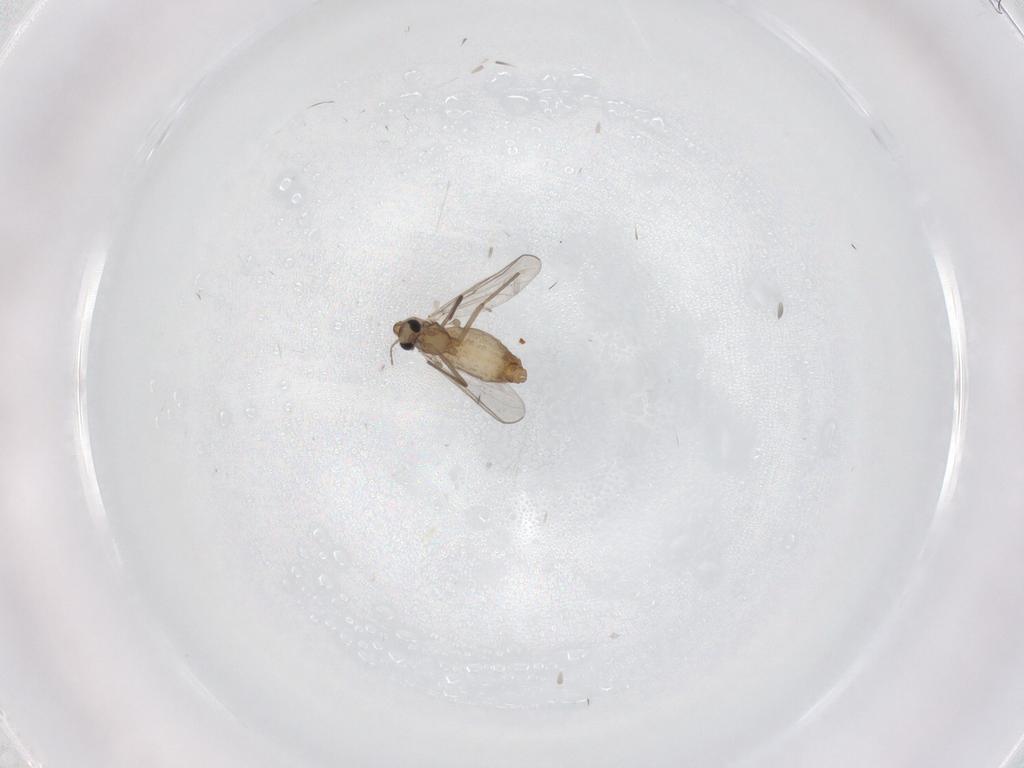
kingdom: Animalia
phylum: Arthropoda
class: Insecta
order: Diptera
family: Chironomidae
